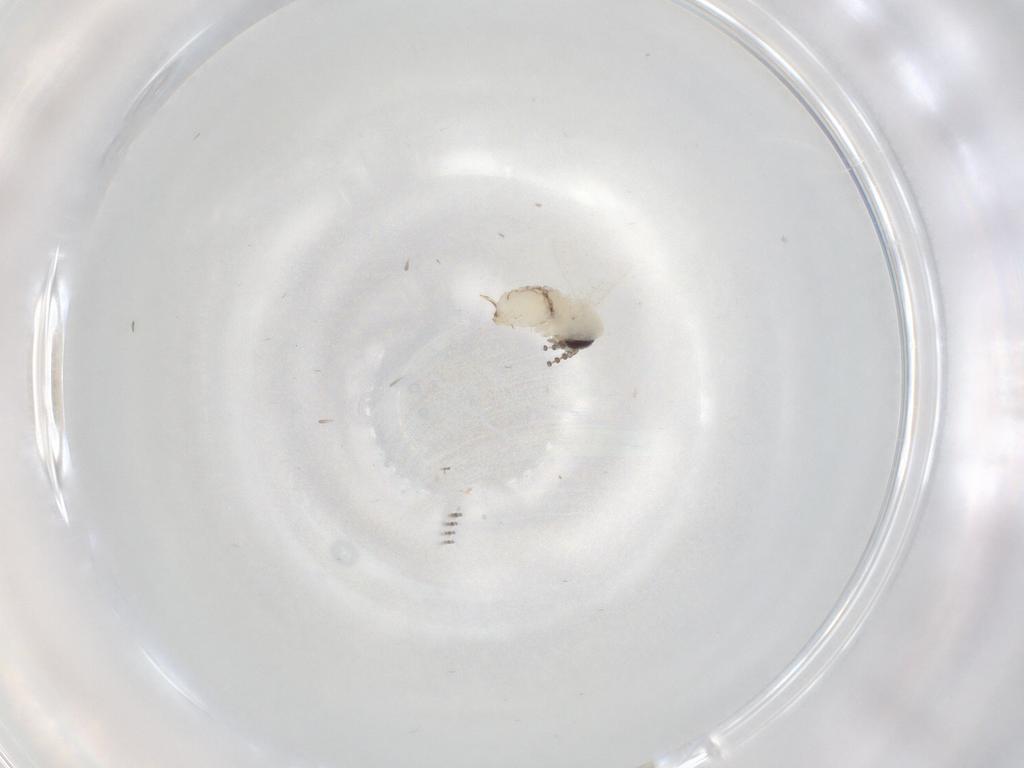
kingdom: Animalia
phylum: Arthropoda
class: Insecta
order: Diptera
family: Psychodidae
